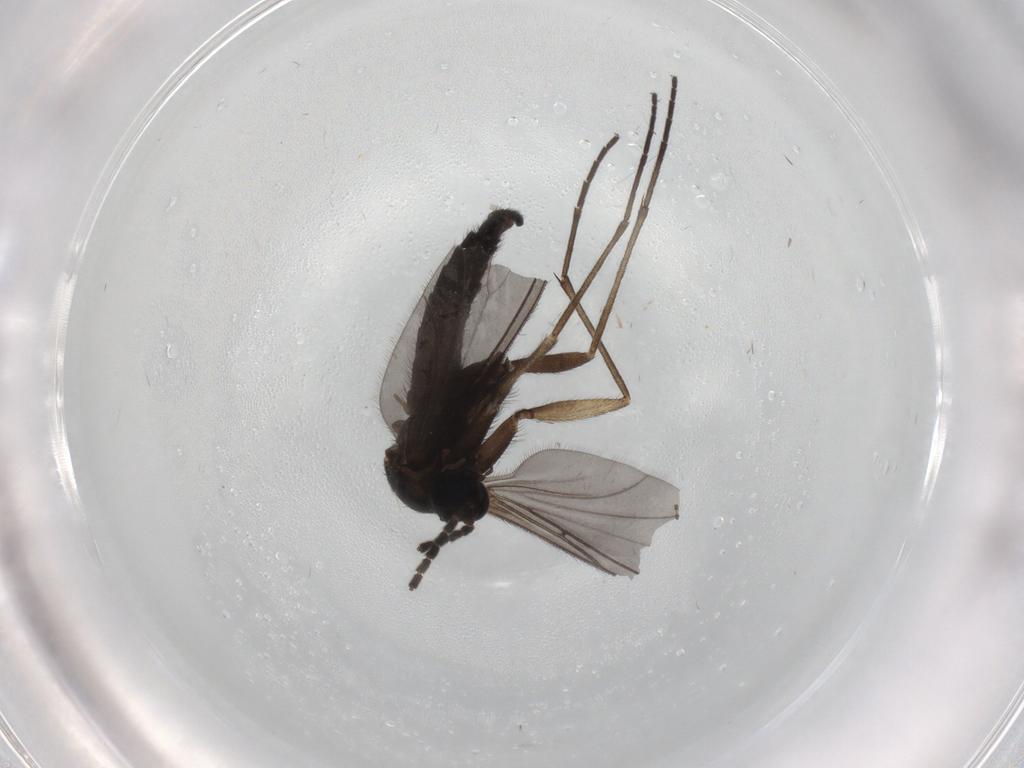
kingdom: Animalia
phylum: Arthropoda
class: Insecta
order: Diptera
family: Sciaridae
